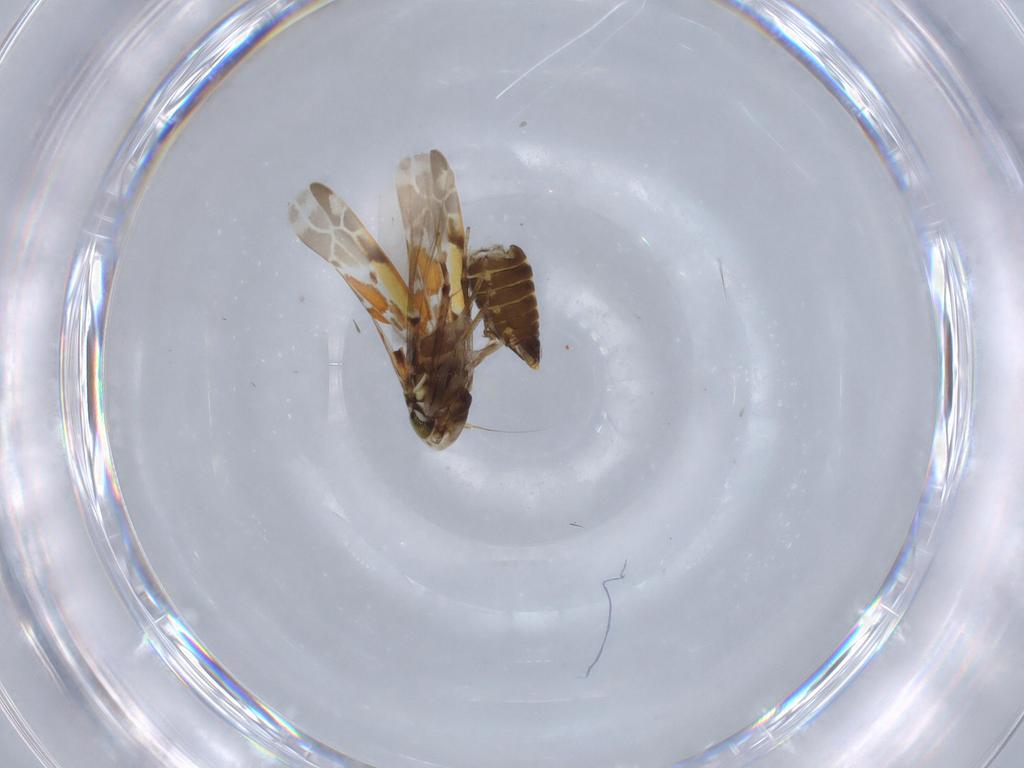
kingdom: Animalia
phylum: Arthropoda
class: Insecta
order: Hemiptera
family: Cicadellidae
